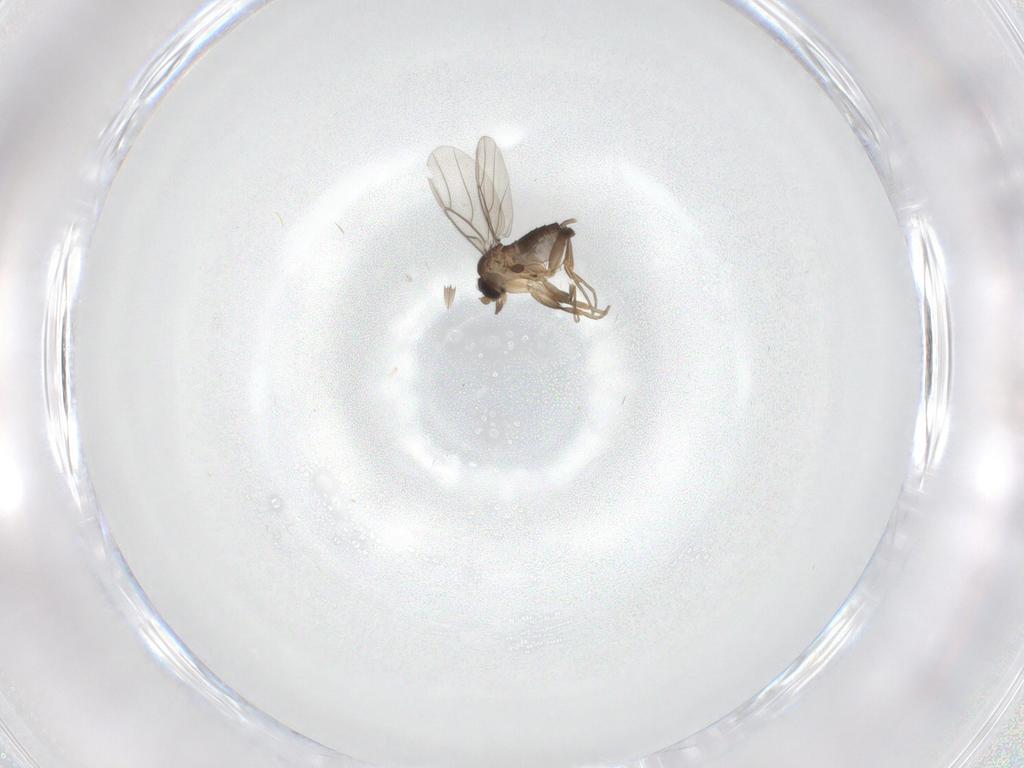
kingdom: Animalia
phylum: Arthropoda
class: Insecta
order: Diptera
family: Phoridae
